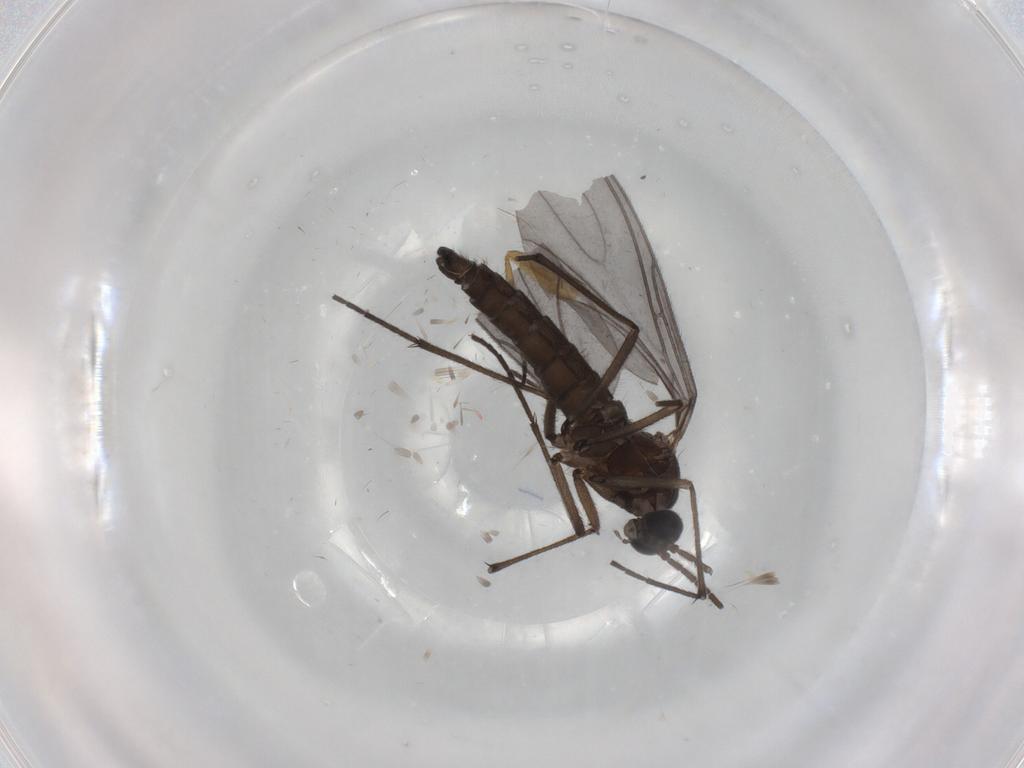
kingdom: Animalia
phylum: Arthropoda
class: Insecta
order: Diptera
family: Sciaridae
